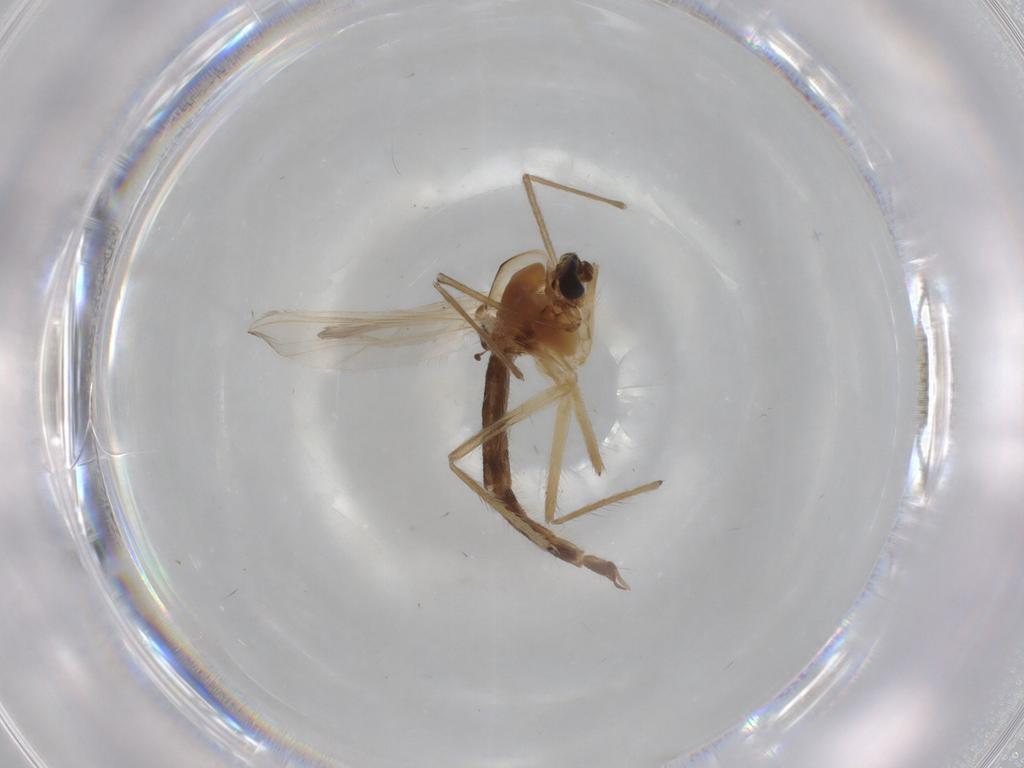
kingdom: Animalia
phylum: Arthropoda
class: Insecta
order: Diptera
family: Chironomidae
